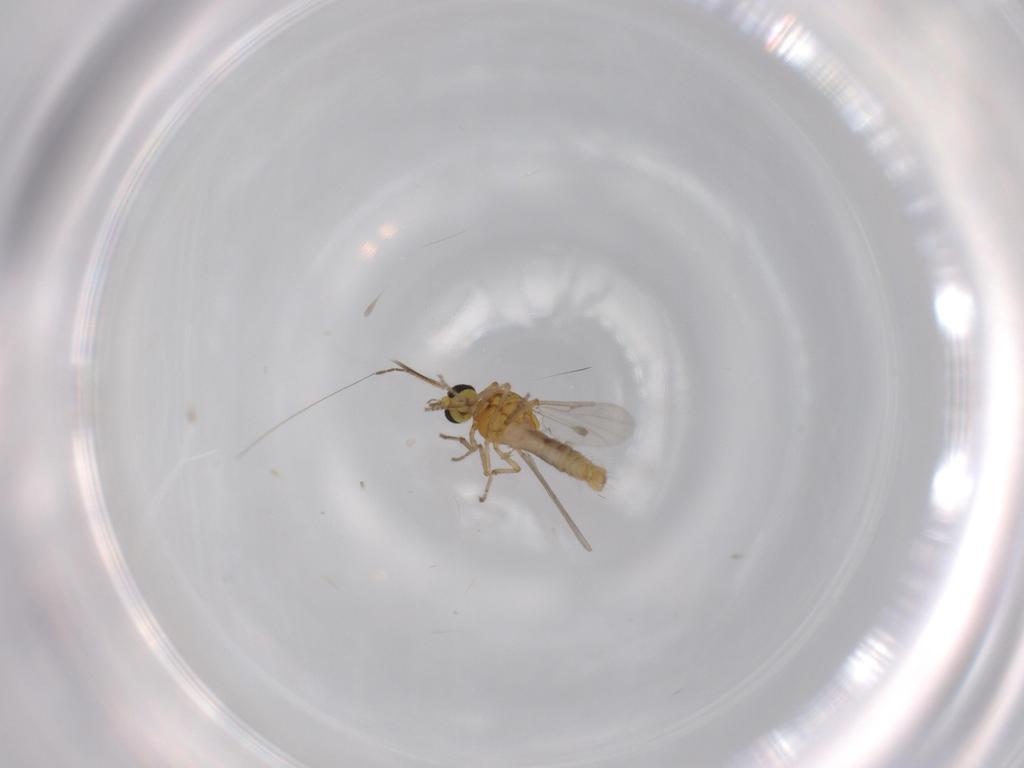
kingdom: Animalia
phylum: Arthropoda
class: Insecta
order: Diptera
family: Ceratopogonidae
